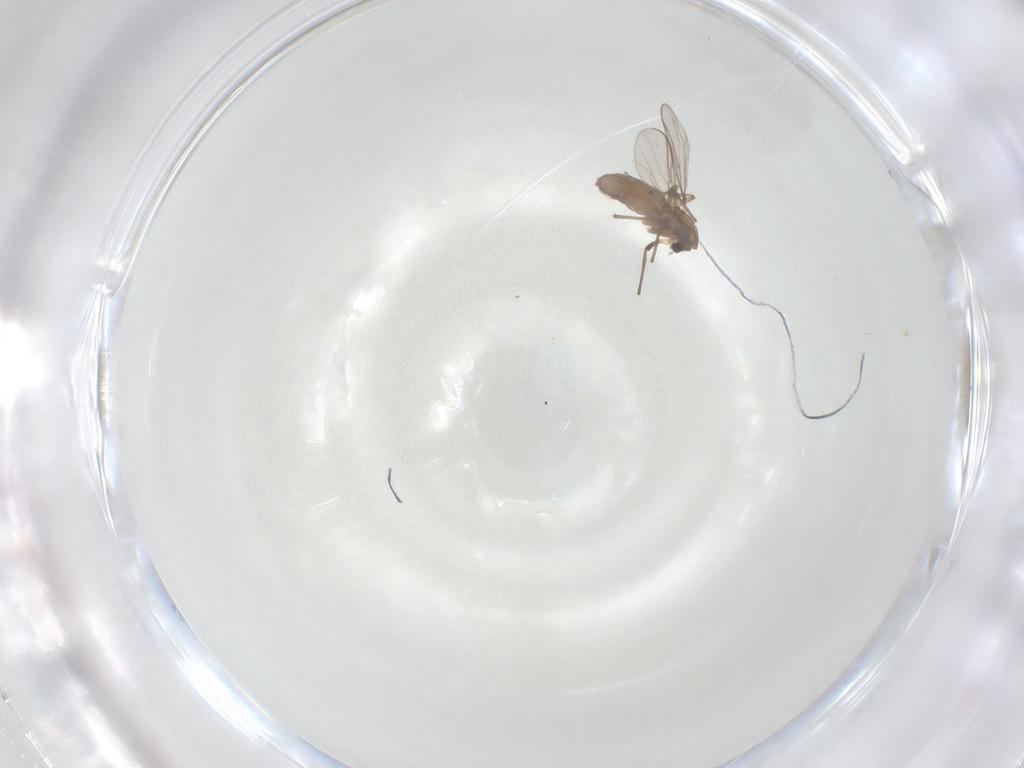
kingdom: Animalia
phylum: Arthropoda
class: Insecta
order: Diptera
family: Chironomidae
